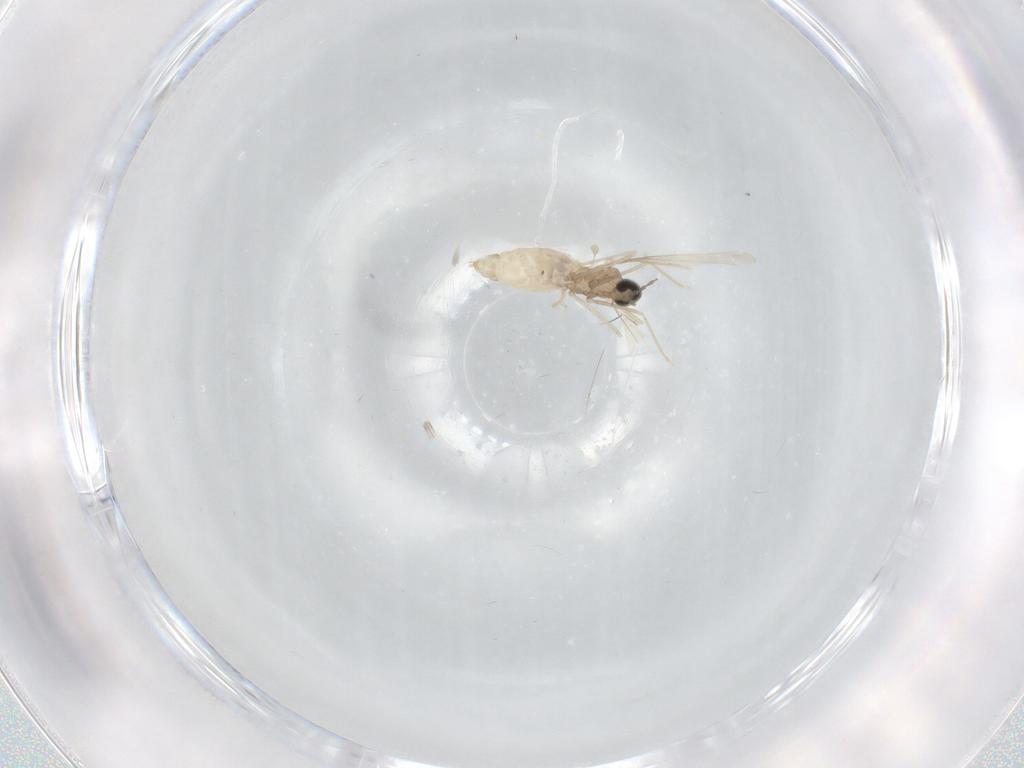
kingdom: Animalia
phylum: Arthropoda
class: Insecta
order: Diptera
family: Cecidomyiidae
